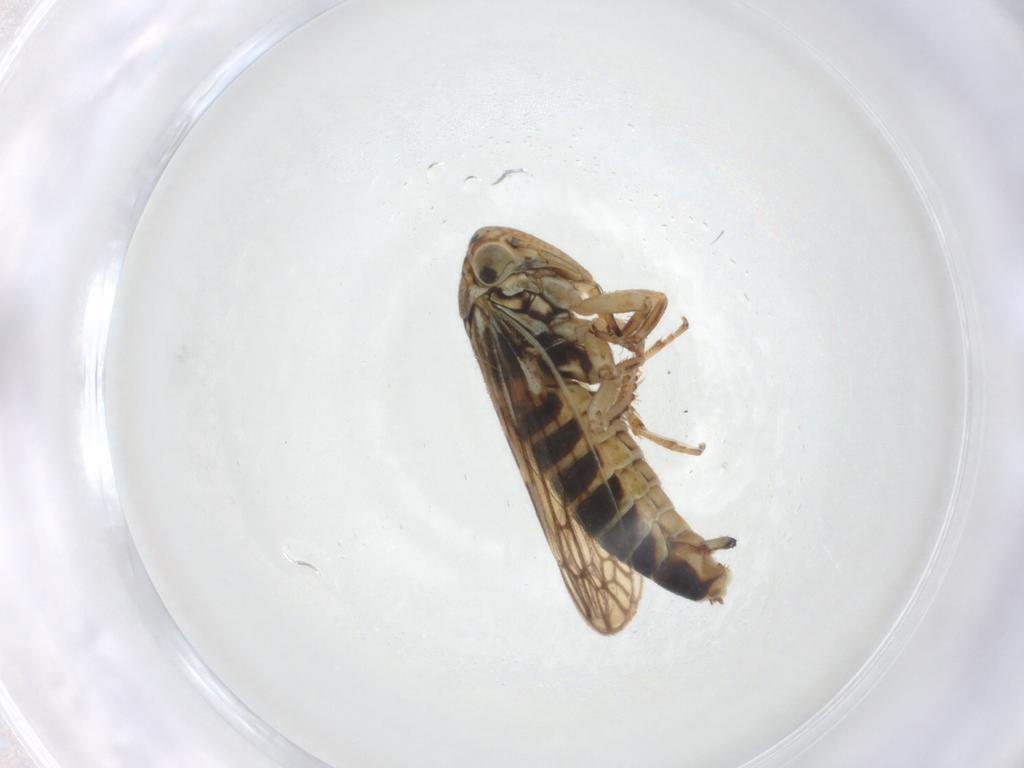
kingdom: Animalia
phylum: Arthropoda
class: Insecta
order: Hemiptera
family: Cicadellidae
